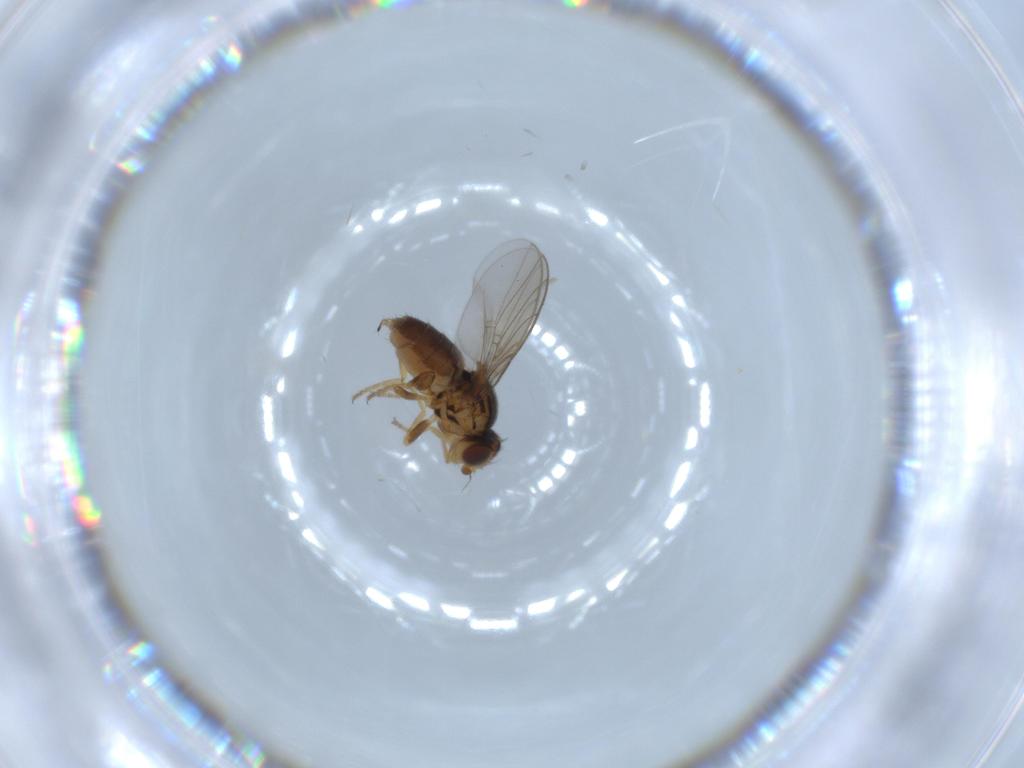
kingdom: Animalia
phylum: Arthropoda
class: Insecta
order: Diptera
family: Chloropidae
